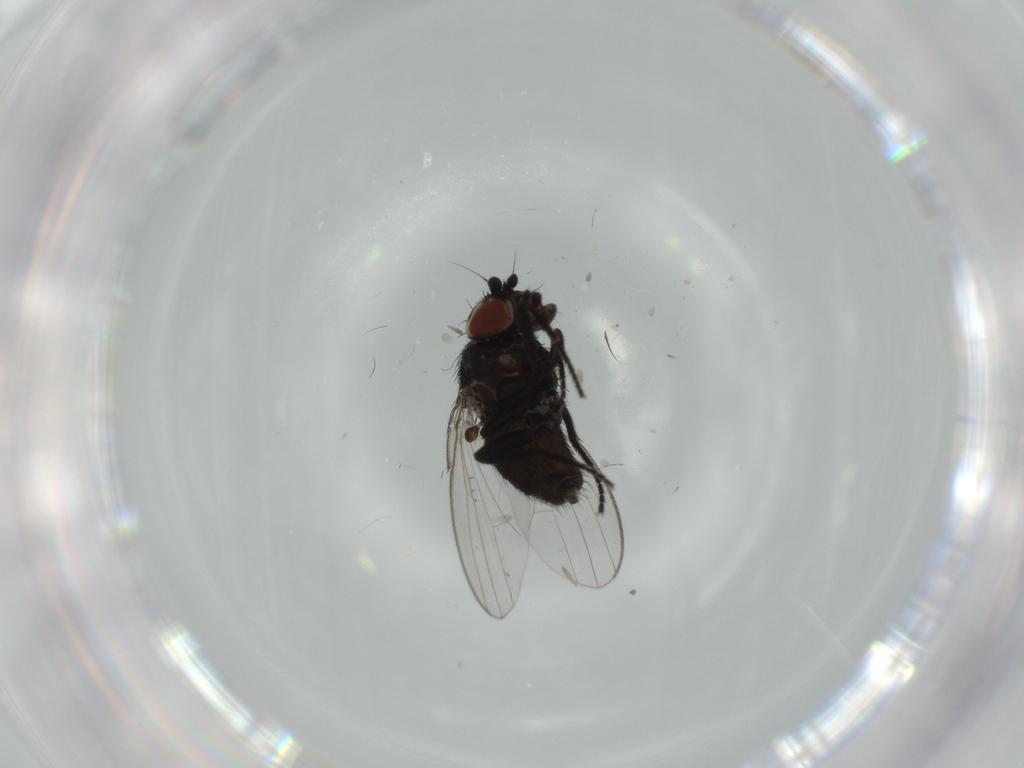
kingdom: Animalia
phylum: Arthropoda
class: Insecta
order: Diptera
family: Milichiidae
